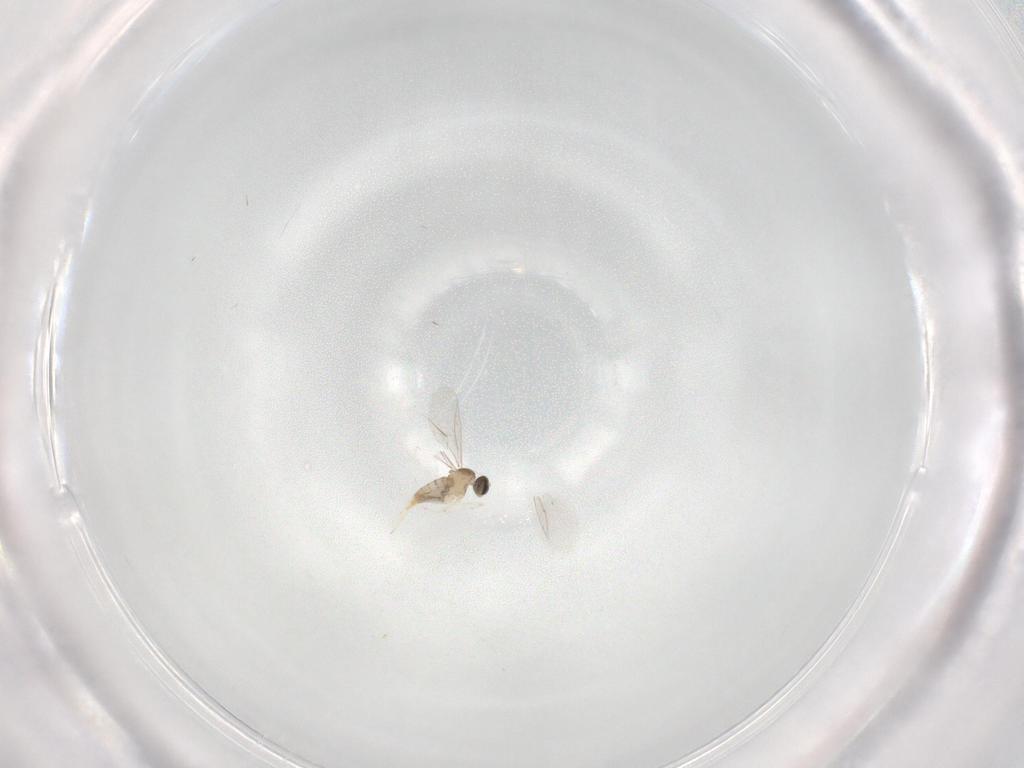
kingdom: Animalia
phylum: Arthropoda
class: Insecta
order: Diptera
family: Cecidomyiidae
